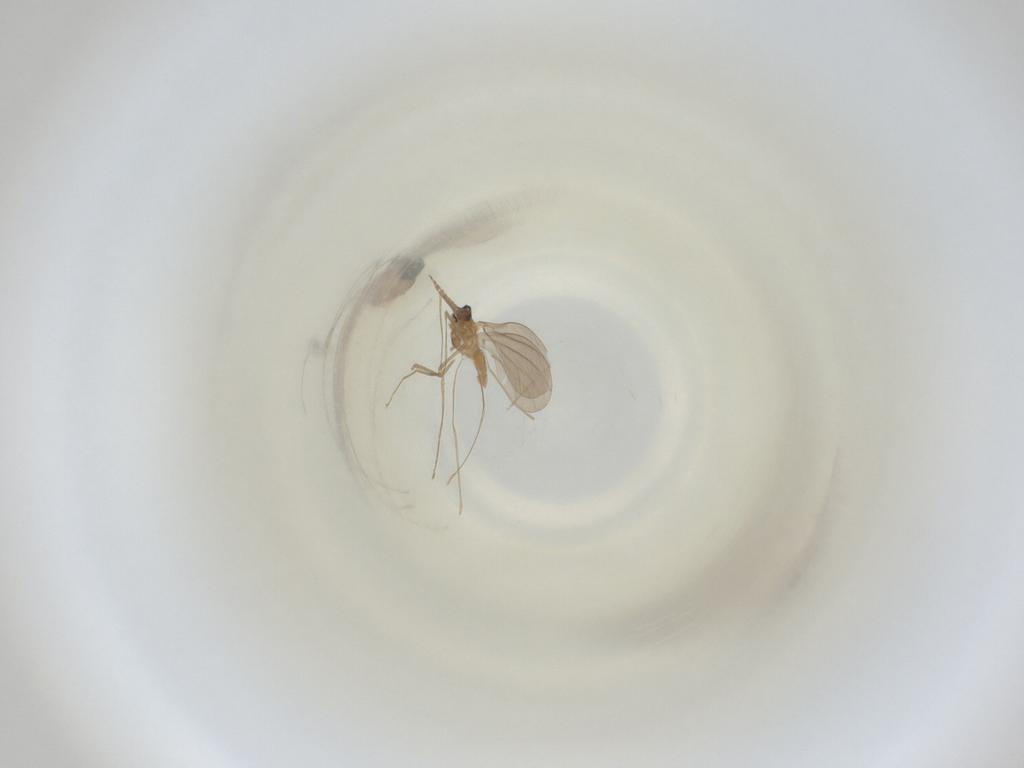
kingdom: Animalia
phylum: Arthropoda
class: Insecta
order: Diptera
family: Cecidomyiidae
